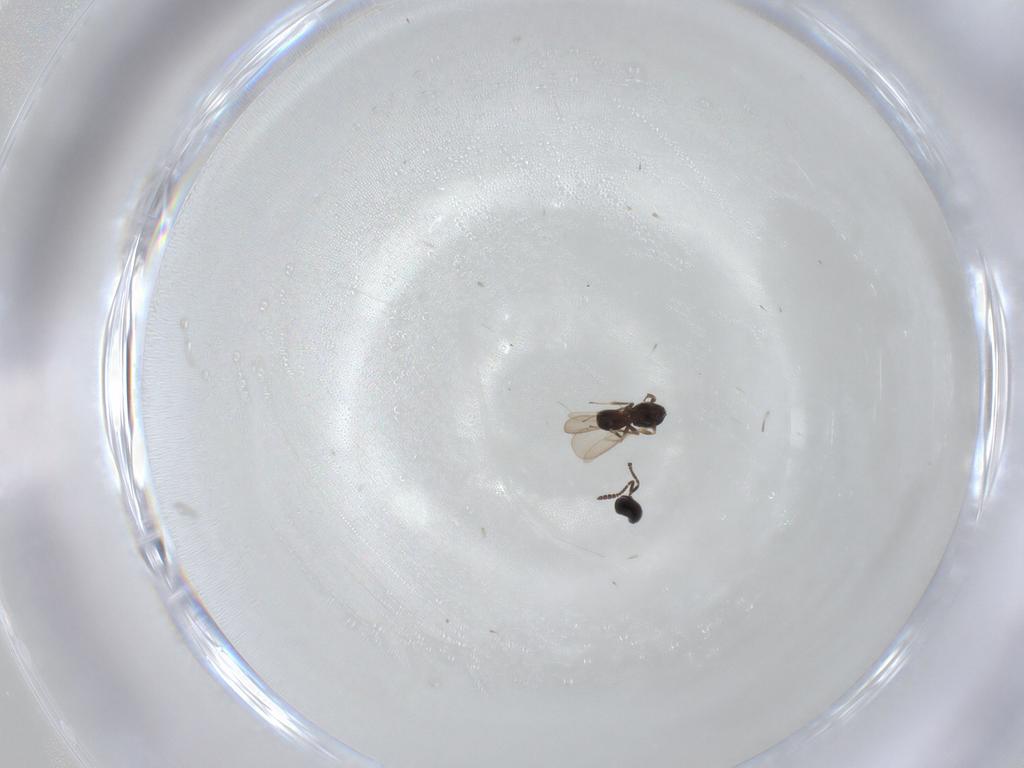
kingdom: Animalia
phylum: Arthropoda
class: Insecta
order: Hymenoptera
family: Scelionidae
